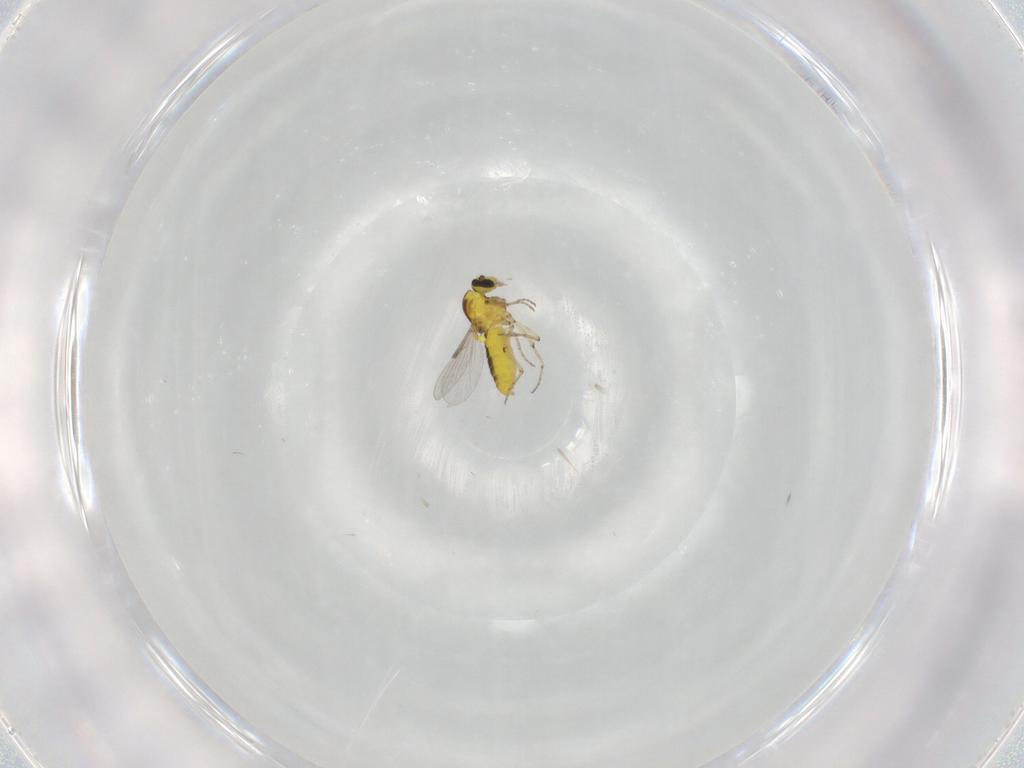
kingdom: Animalia
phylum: Arthropoda
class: Insecta
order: Diptera
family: Ceratopogonidae
